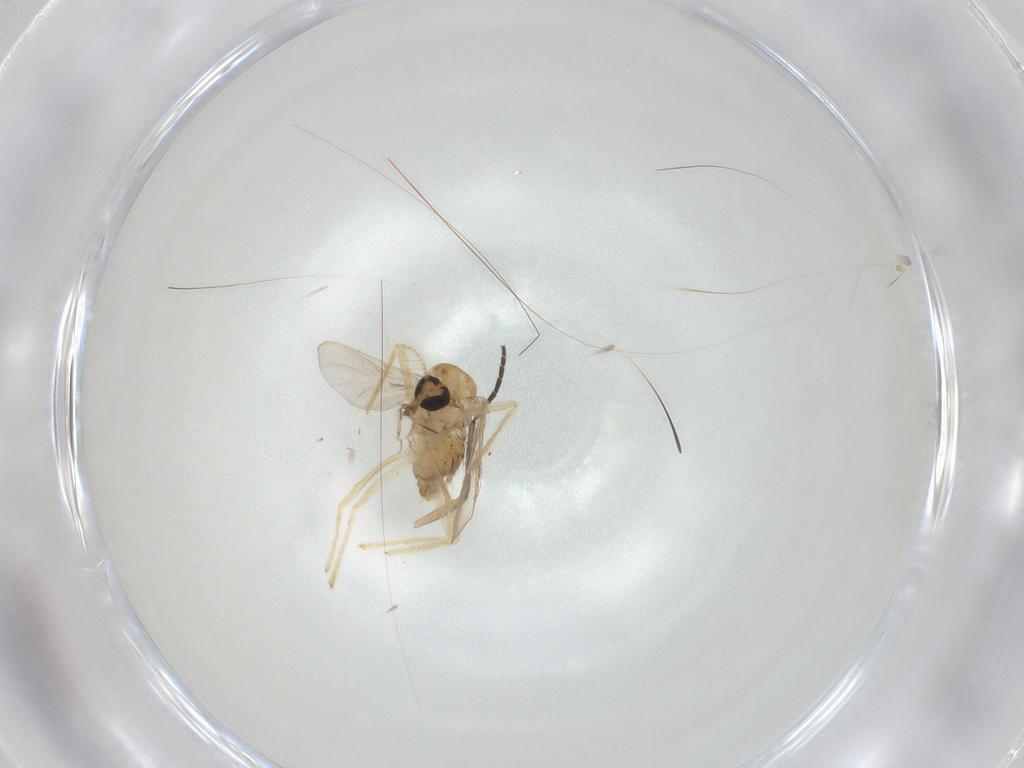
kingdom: Animalia
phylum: Arthropoda
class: Insecta
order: Diptera
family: Chironomidae
